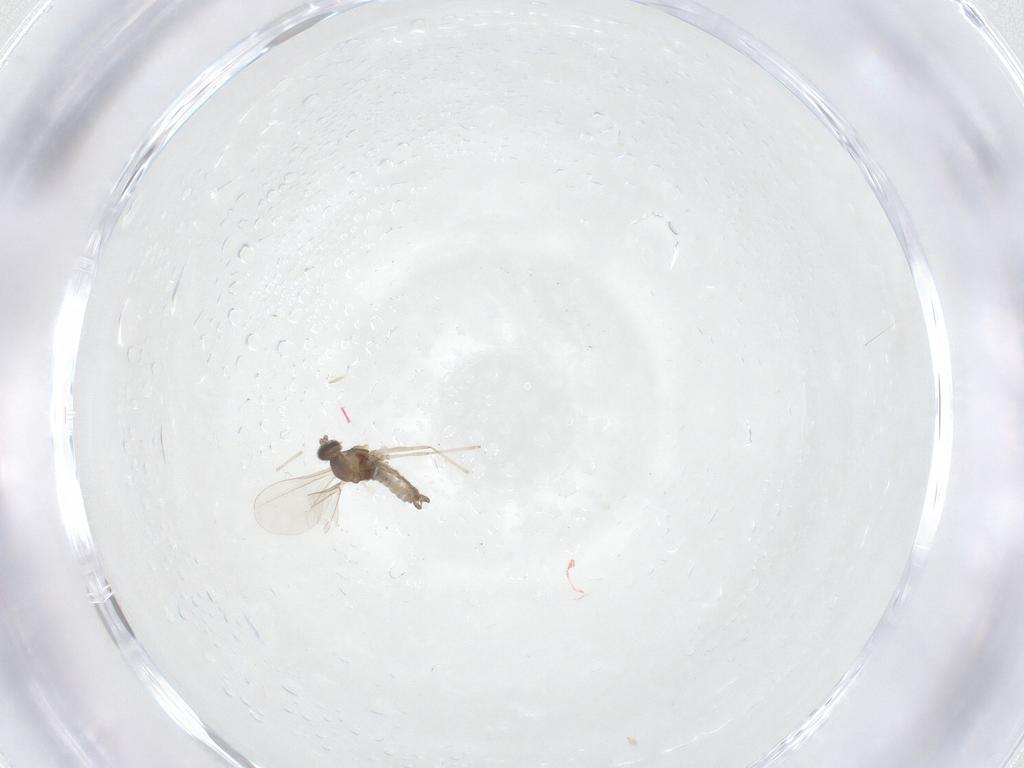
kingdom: Animalia
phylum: Arthropoda
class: Insecta
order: Diptera
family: Cecidomyiidae
